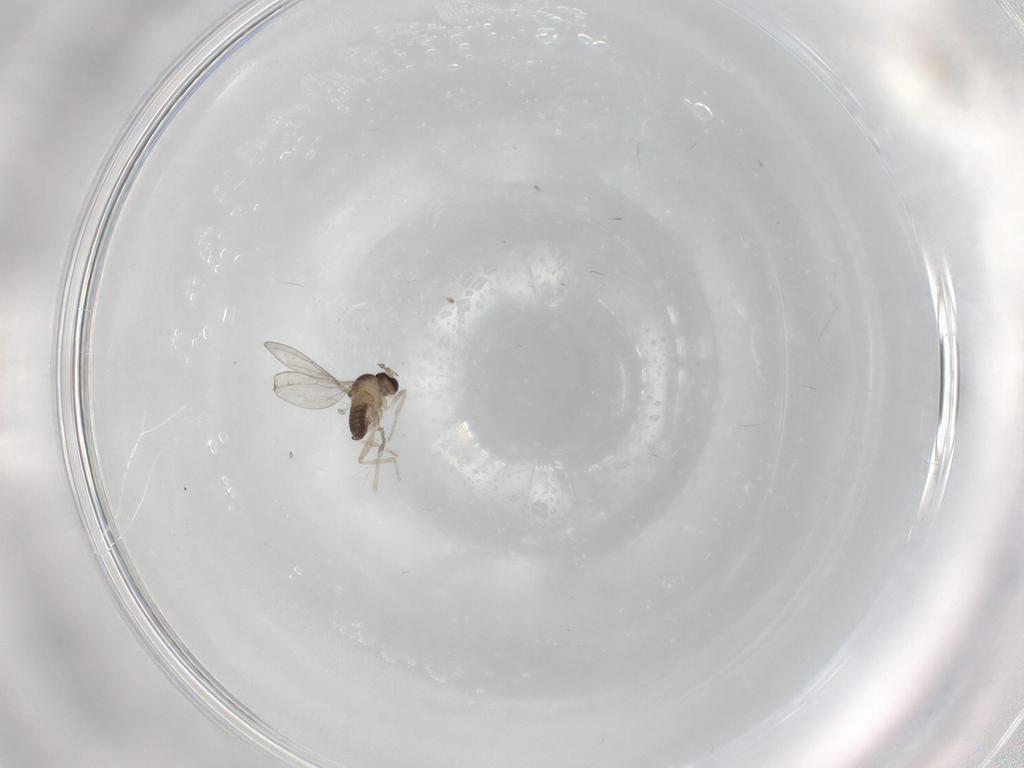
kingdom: Animalia
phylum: Arthropoda
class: Insecta
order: Diptera
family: Cecidomyiidae
